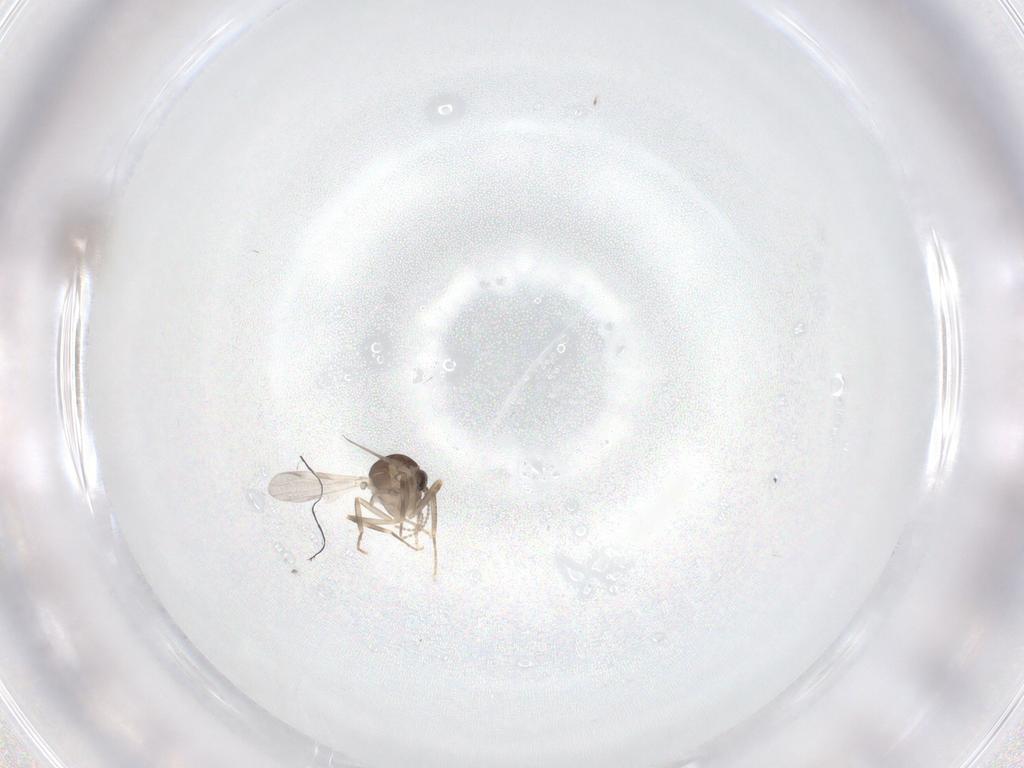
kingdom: Animalia
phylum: Arthropoda
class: Insecta
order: Diptera
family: Ceratopogonidae
